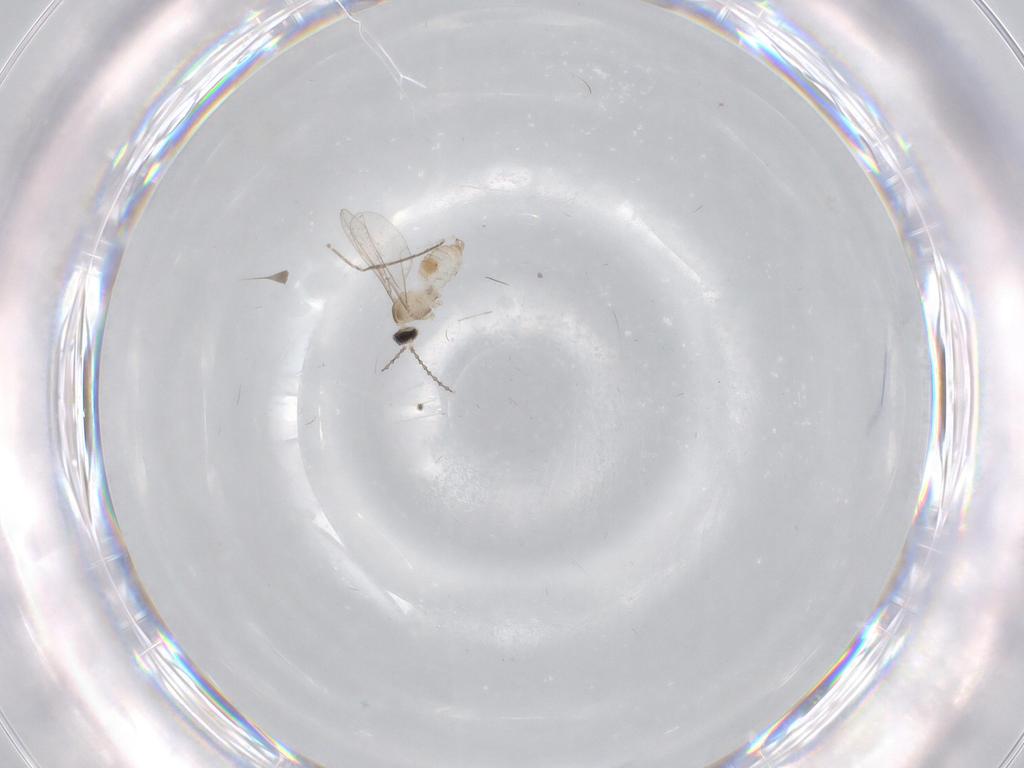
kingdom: Animalia
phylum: Arthropoda
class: Insecta
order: Diptera
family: Cecidomyiidae
